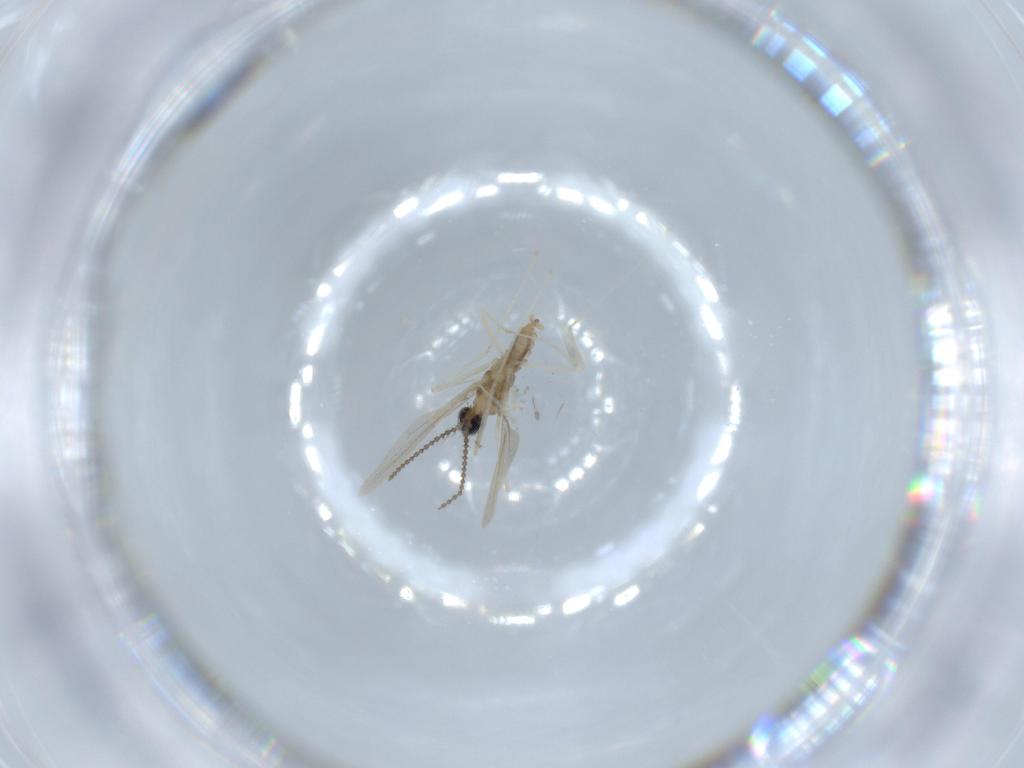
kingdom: Animalia
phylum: Arthropoda
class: Insecta
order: Diptera
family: Cecidomyiidae
